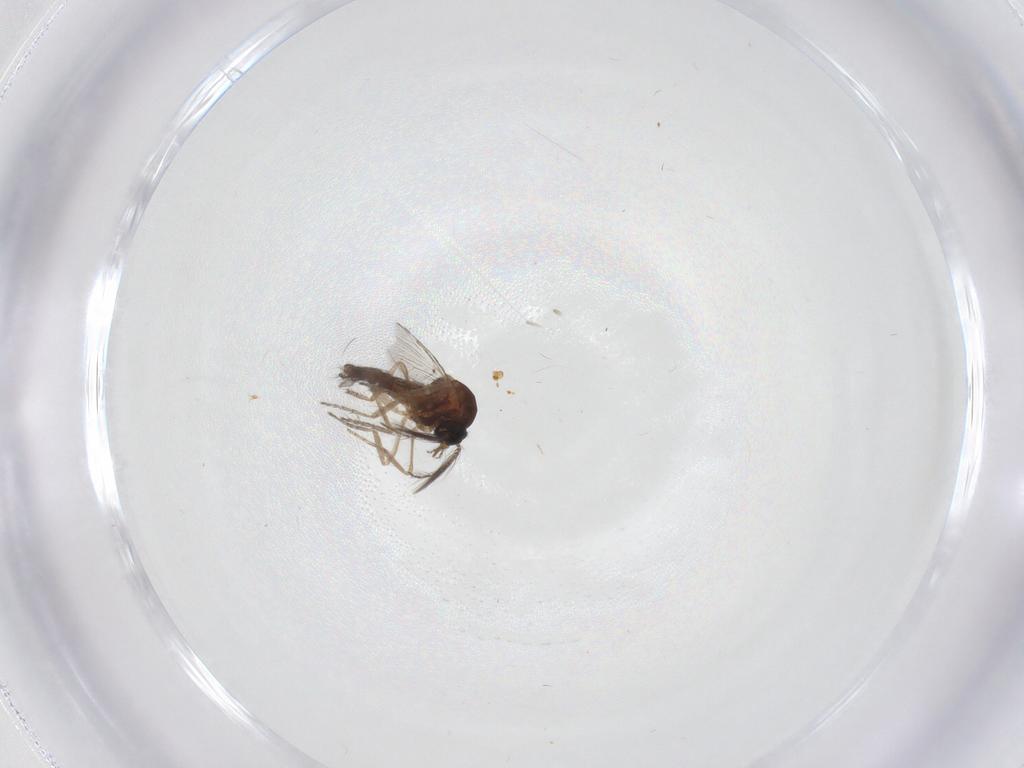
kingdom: Animalia
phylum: Arthropoda
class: Insecta
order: Diptera
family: Ceratopogonidae
